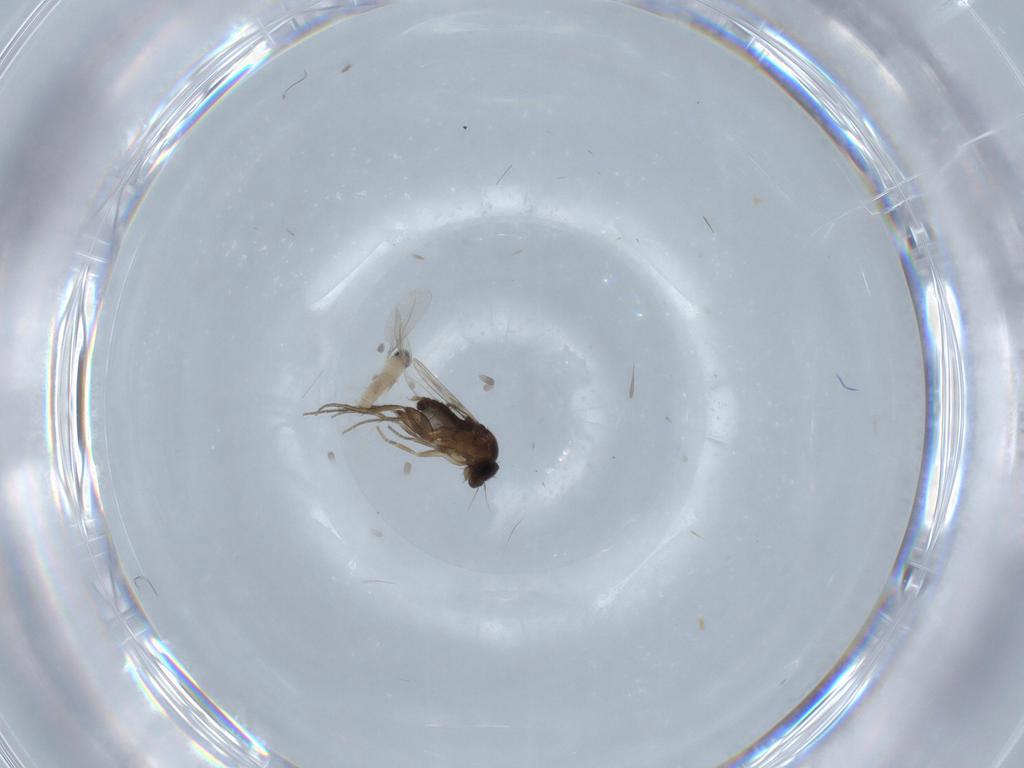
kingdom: Animalia
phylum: Arthropoda
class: Insecta
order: Diptera
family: Phoridae
